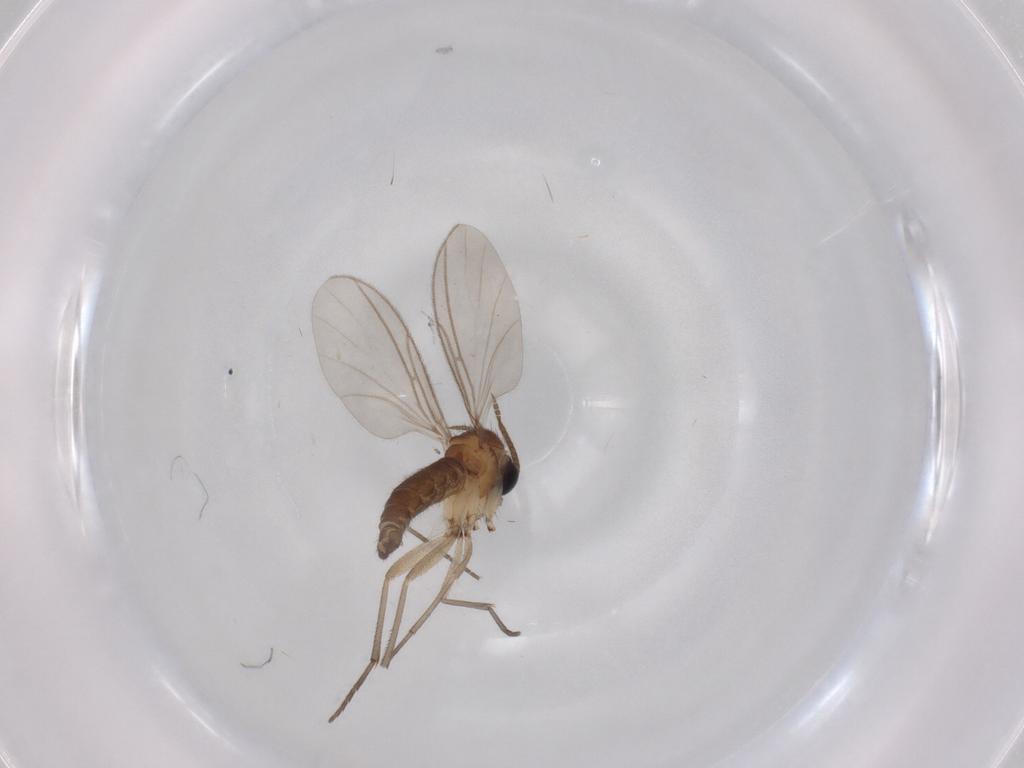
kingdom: Animalia
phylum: Arthropoda
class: Insecta
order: Diptera
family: Sciaridae
